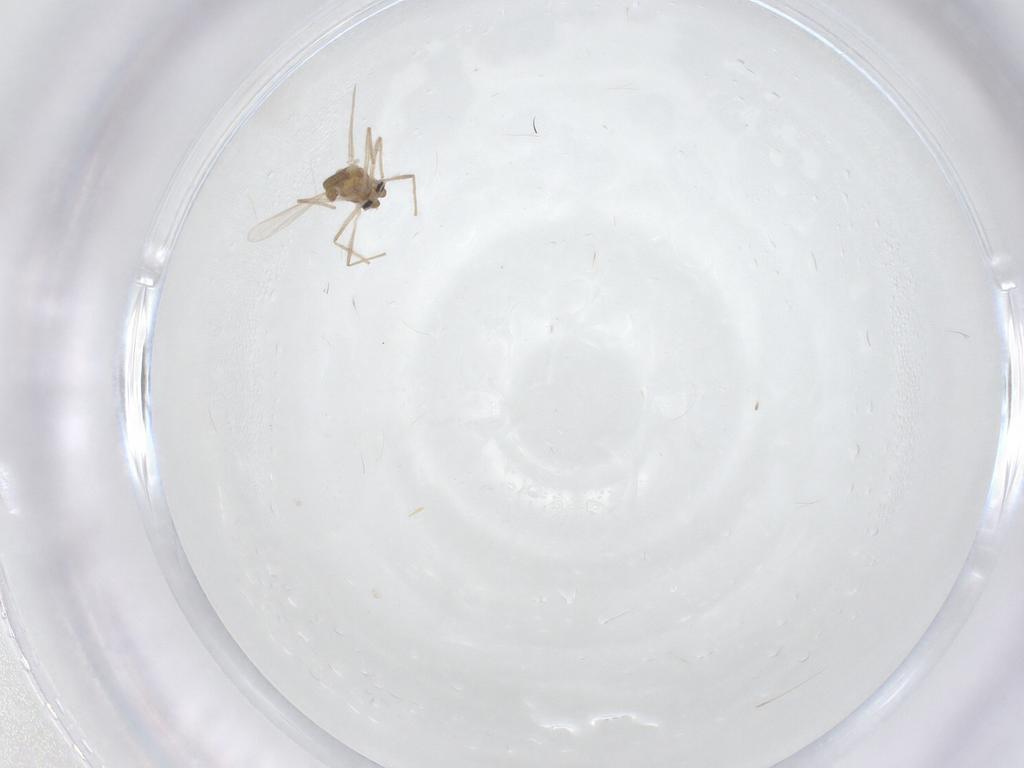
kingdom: Animalia
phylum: Arthropoda
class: Insecta
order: Diptera
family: Chironomidae
